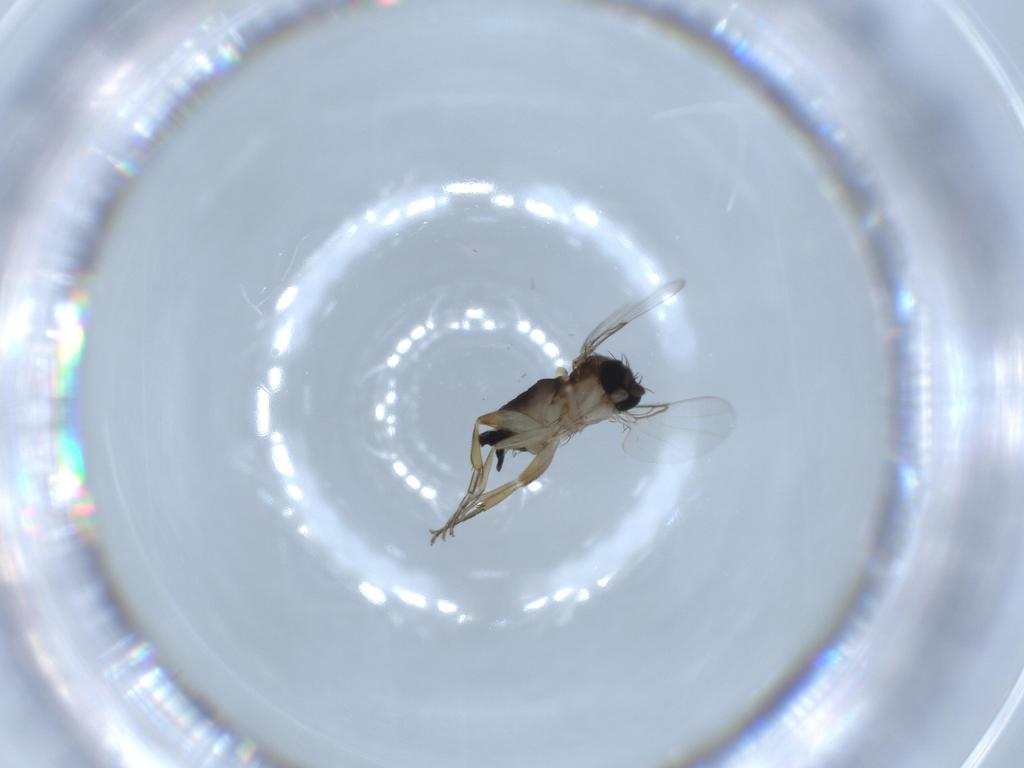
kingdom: Animalia
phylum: Arthropoda
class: Insecta
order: Diptera
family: Phoridae
